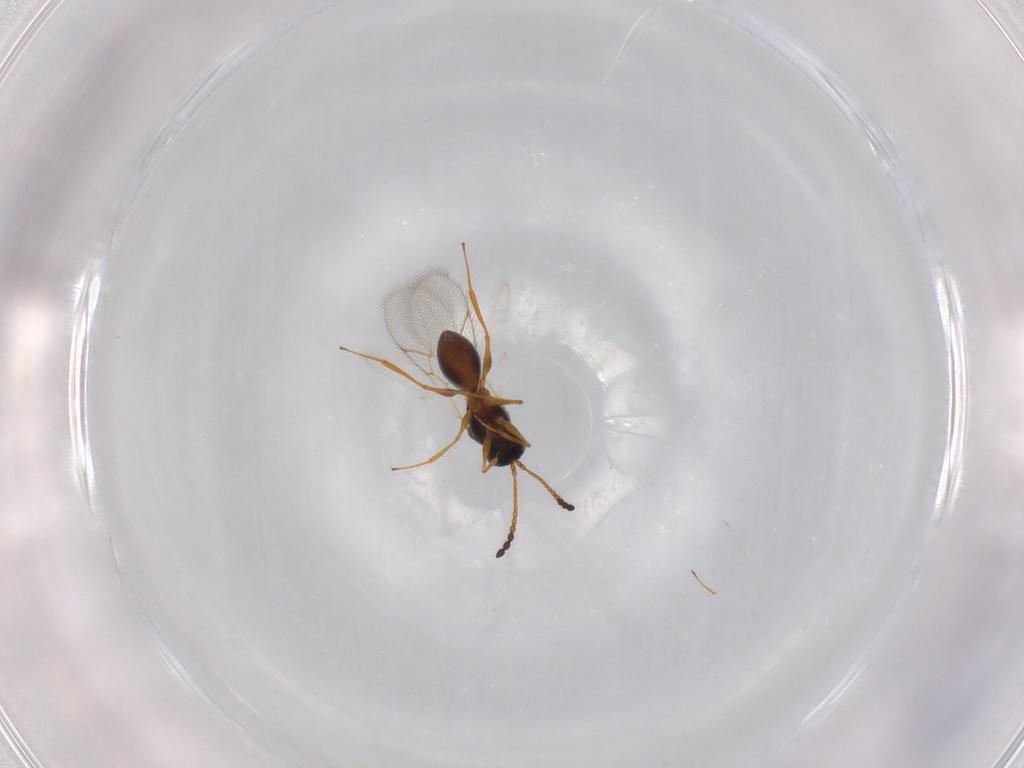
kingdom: Animalia
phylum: Arthropoda
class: Insecta
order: Hymenoptera
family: Figitidae
